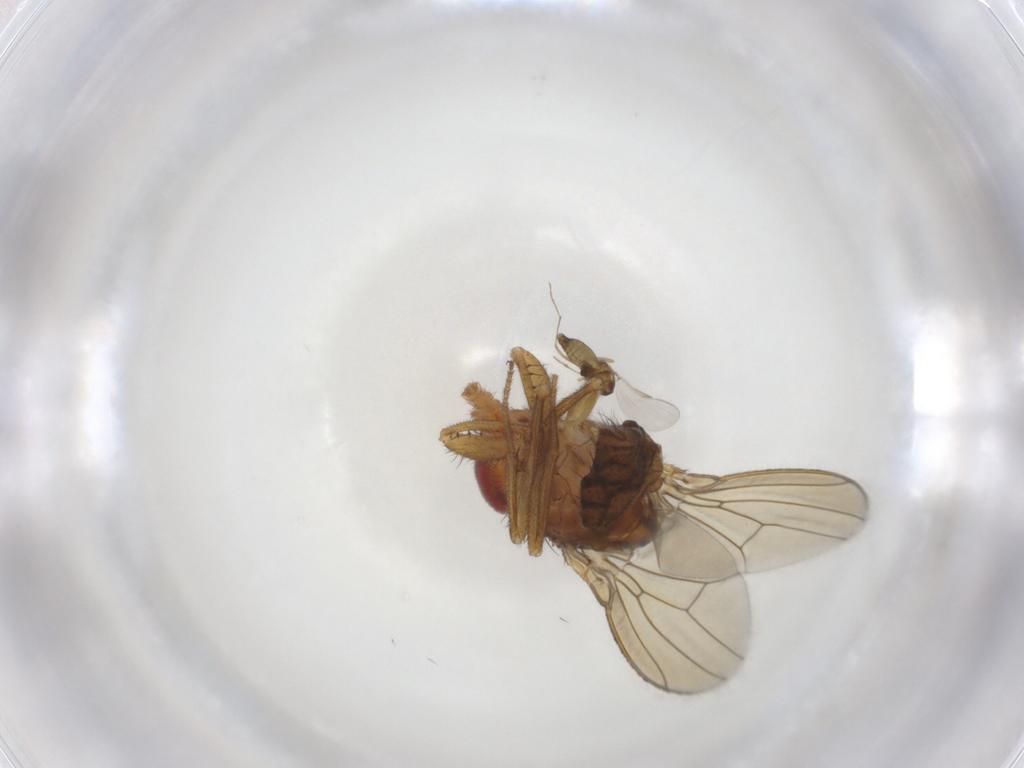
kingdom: Animalia
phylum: Arthropoda
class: Insecta
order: Diptera
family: Drosophilidae
